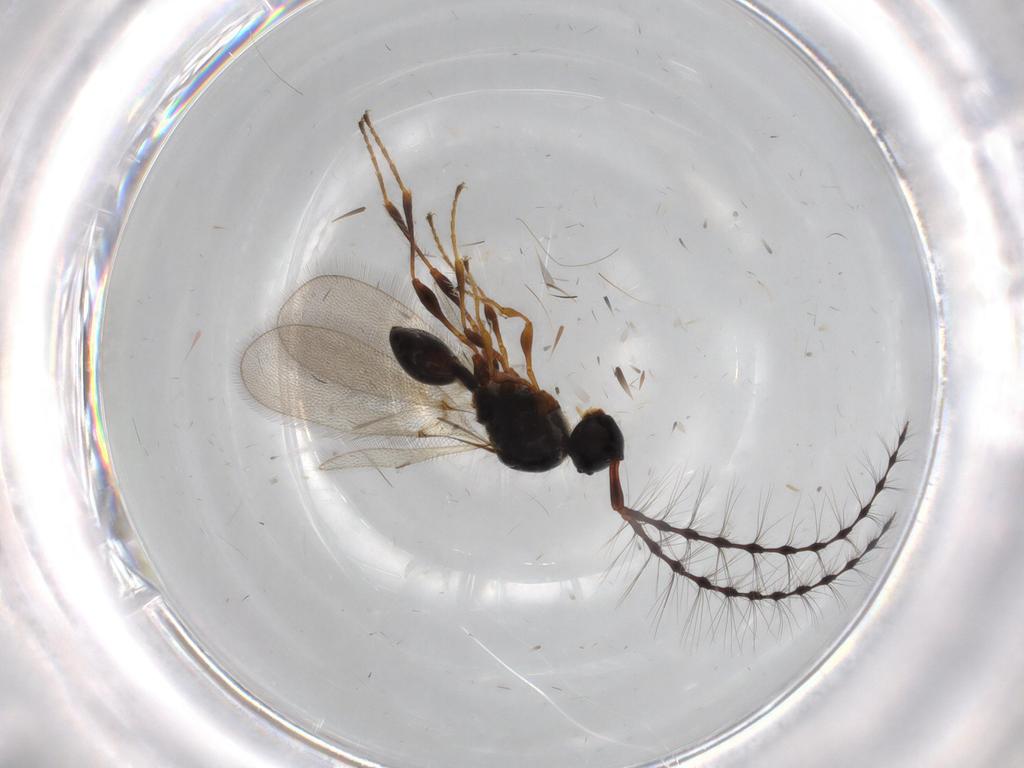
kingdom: Animalia
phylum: Arthropoda
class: Insecta
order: Hymenoptera
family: Diapriidae
